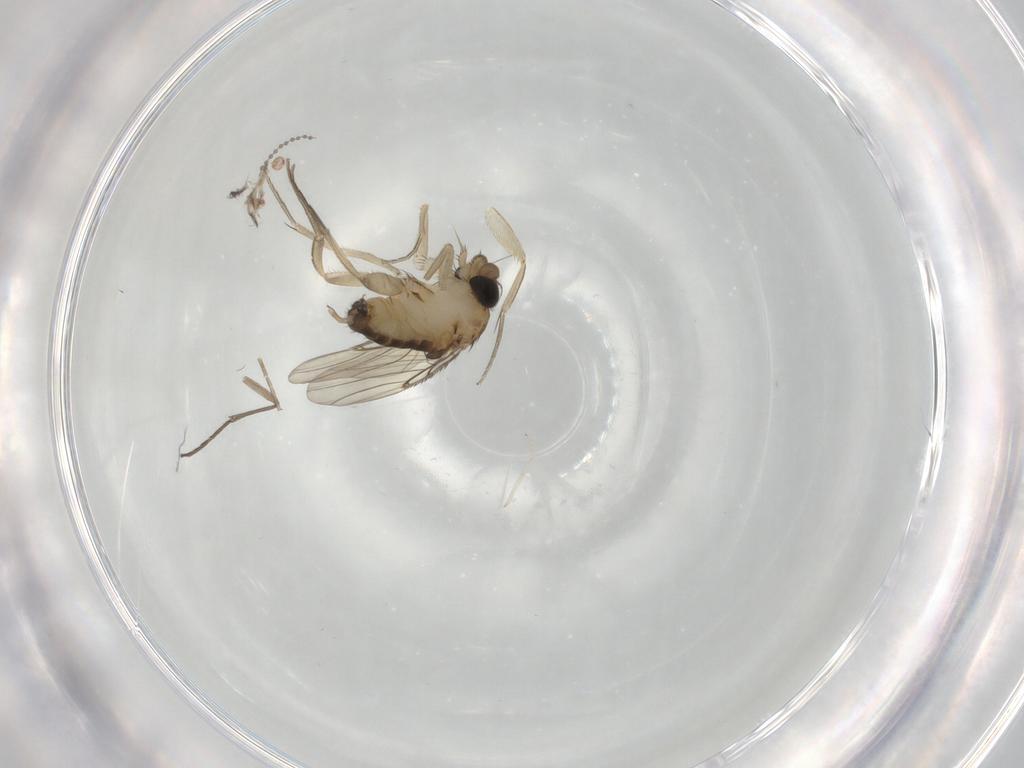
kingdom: Animalia
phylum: Arthropoda
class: Insecta
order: Diptera
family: Phoridae
